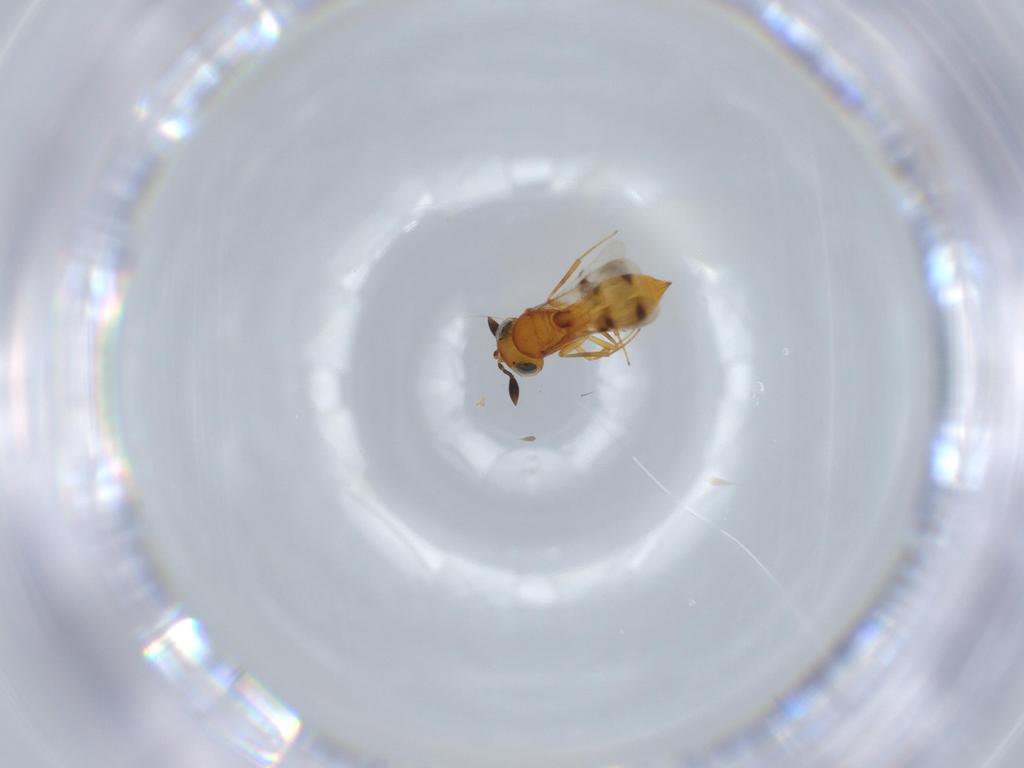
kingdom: Animalia
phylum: Arthropoda
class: Insecta
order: Hymenoptera
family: Scelionidae
